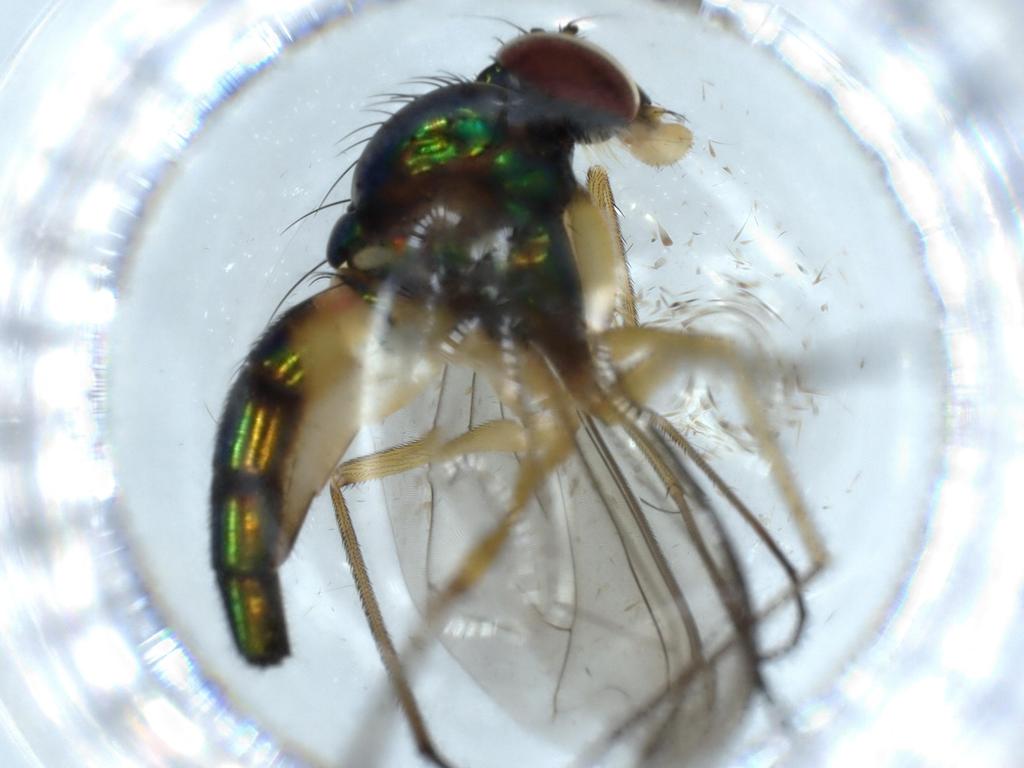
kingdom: Animalia
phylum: Arthropoda
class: Insecta
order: Diptera
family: Dolichopodidae
